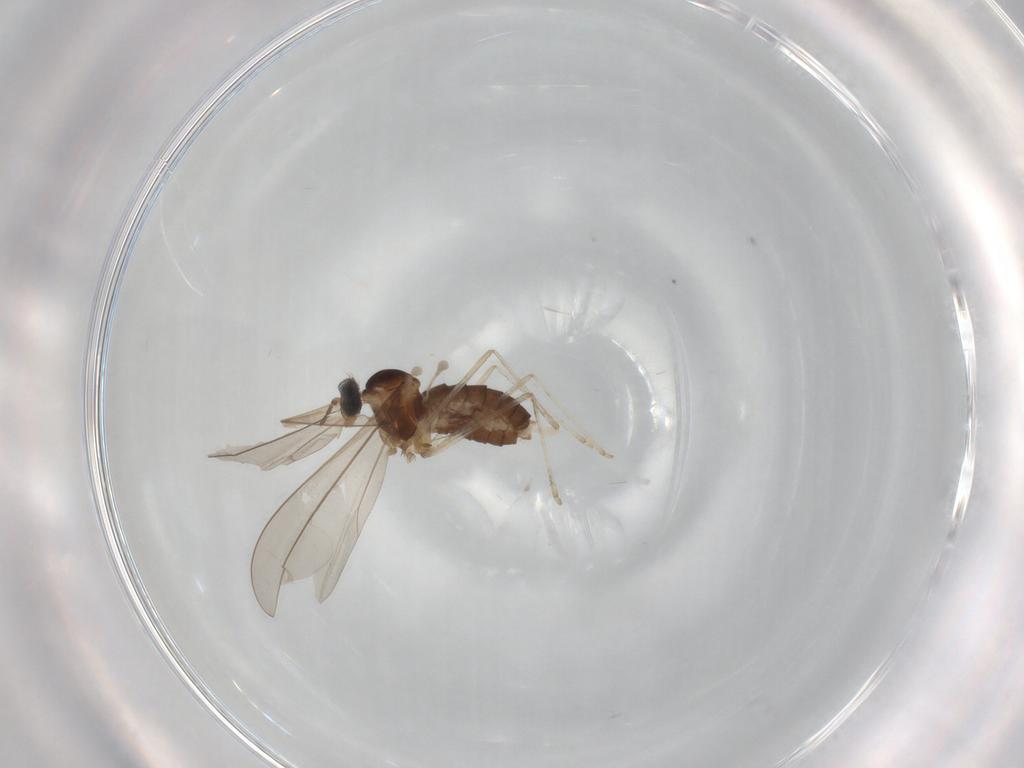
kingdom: Animalia
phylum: Arthropoda
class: Insecta
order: Diptera
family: Cecidomyiidae
